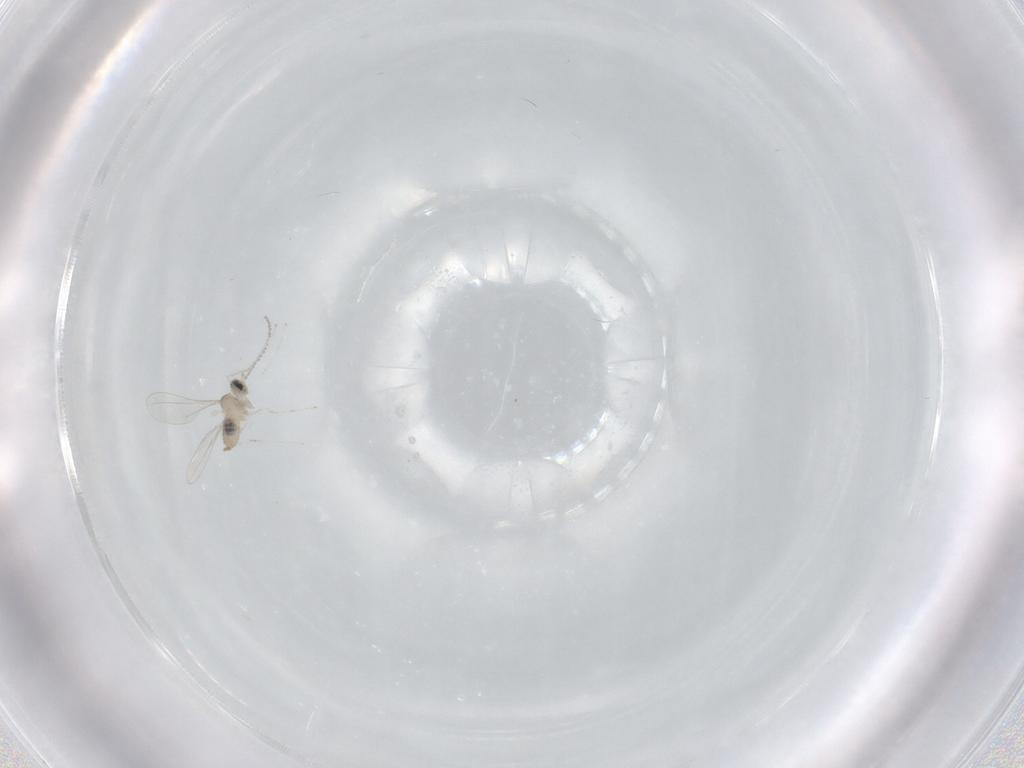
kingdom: Animalia
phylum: Arthropoda
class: Insecta
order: Diptera
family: Cecidomyiidae
